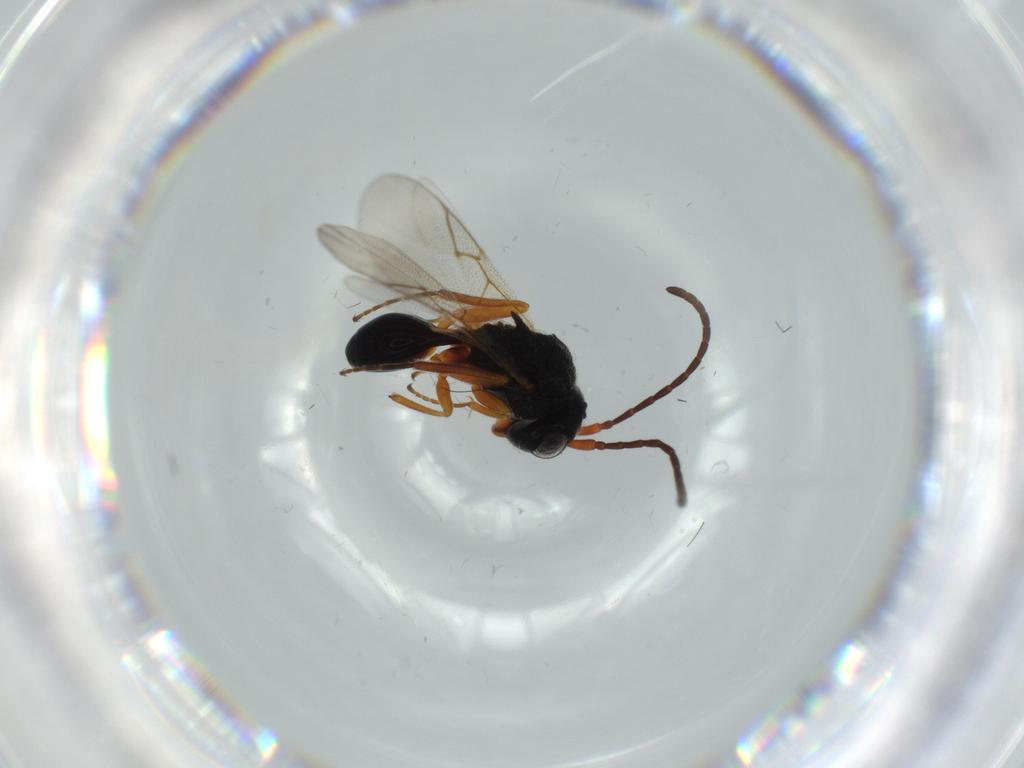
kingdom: Animalia
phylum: Arthropoda
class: Insecta
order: Hymenoptera
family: Figitidae
